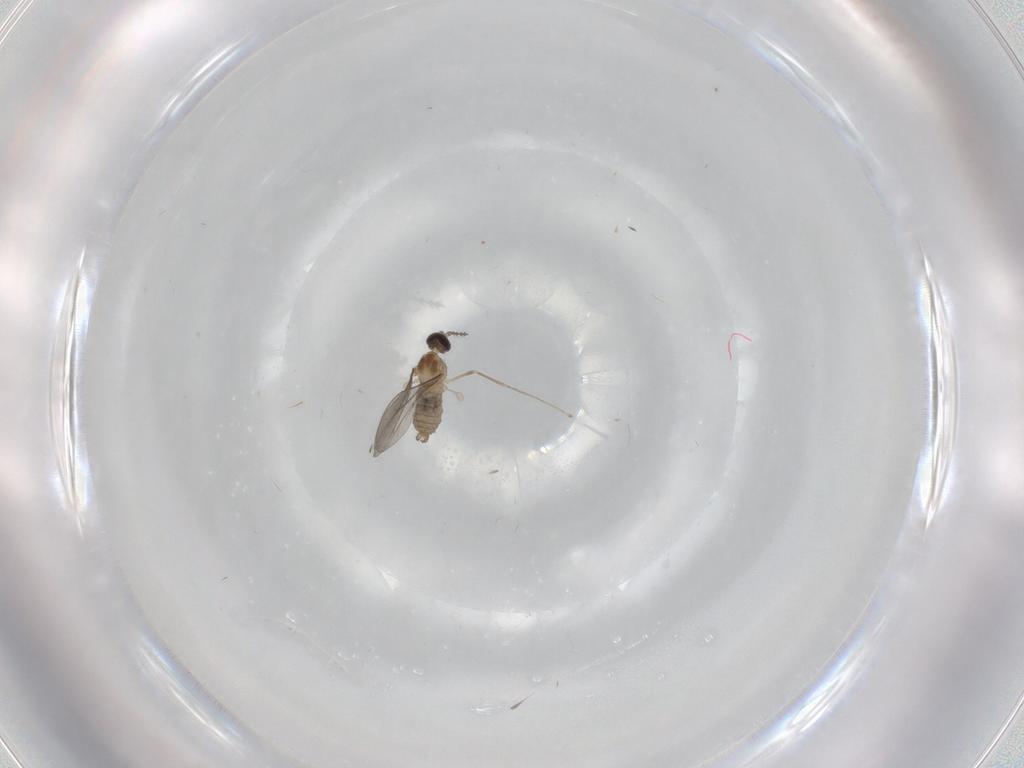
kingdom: Animalia
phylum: Arthropoda
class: Insecta
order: Diptera
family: Cecidomyiidae
